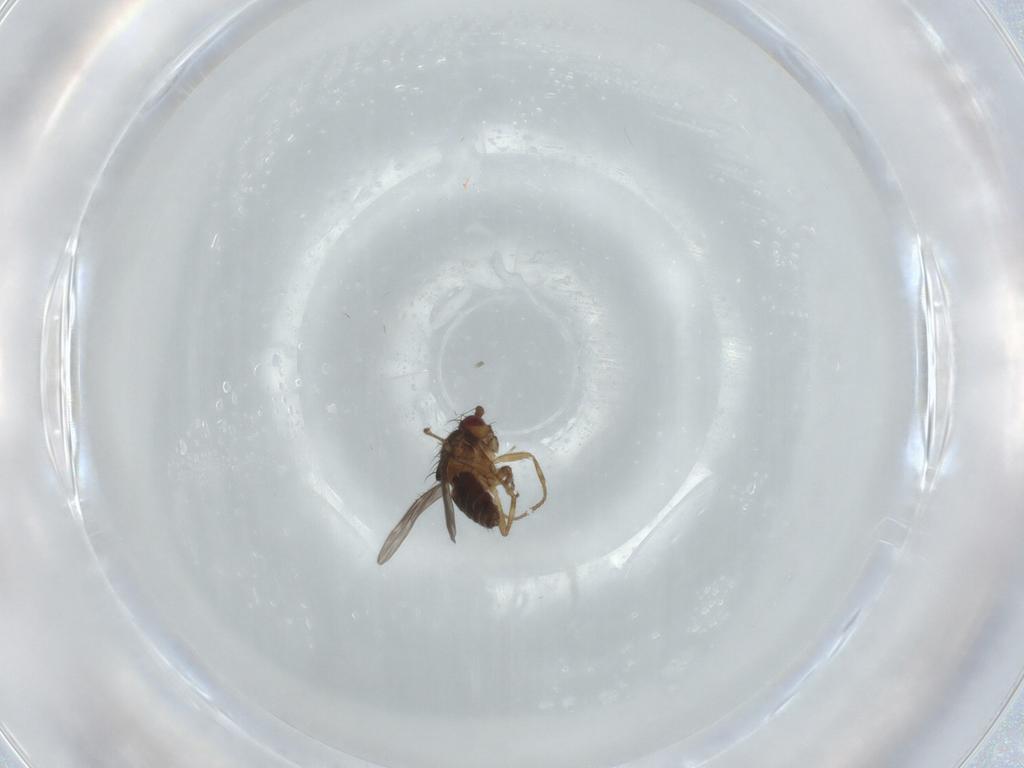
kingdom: Animalia
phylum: Arthropoda
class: Insecta
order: Diptera
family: Sphaeroceridae
